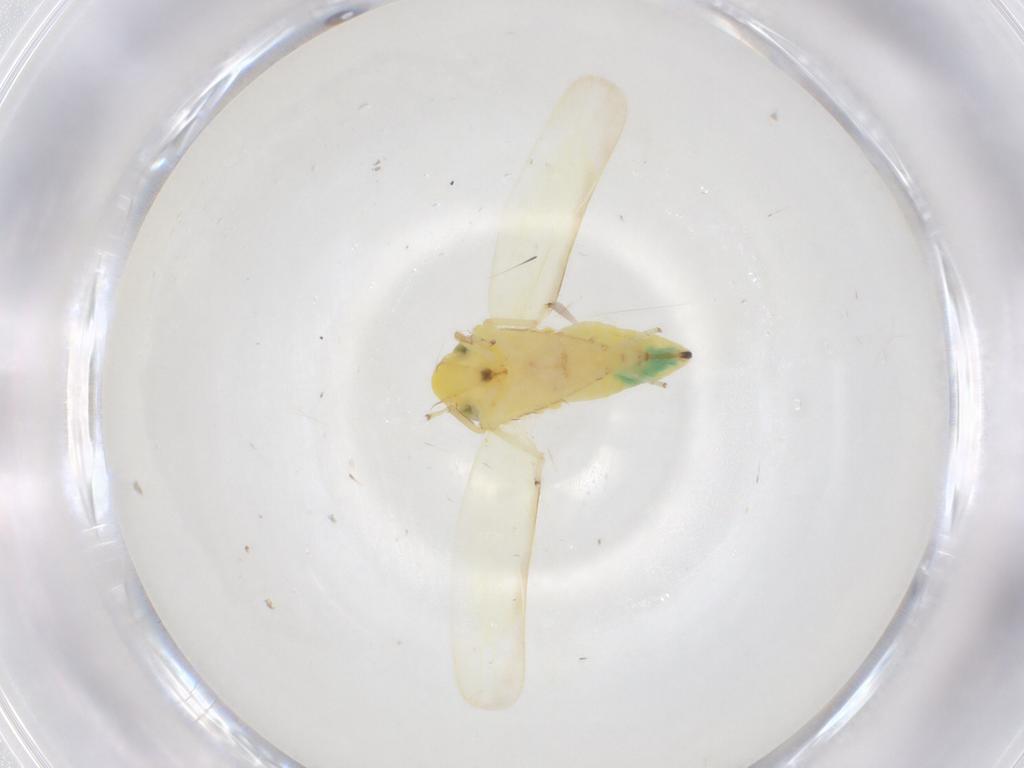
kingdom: Animalia
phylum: Arthropoda
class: Insecta
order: Hemiptera
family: Cicadellidae
